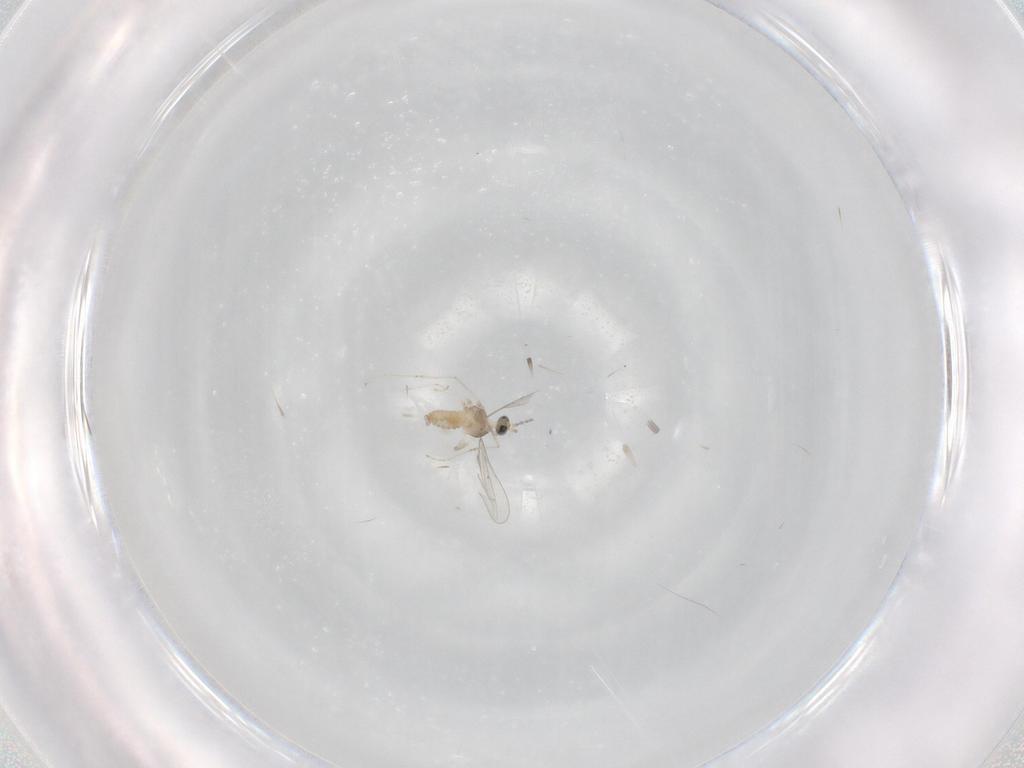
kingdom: Animalia
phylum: Arthropoda
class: Insecta
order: Diptera
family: Cecidomyiidae
